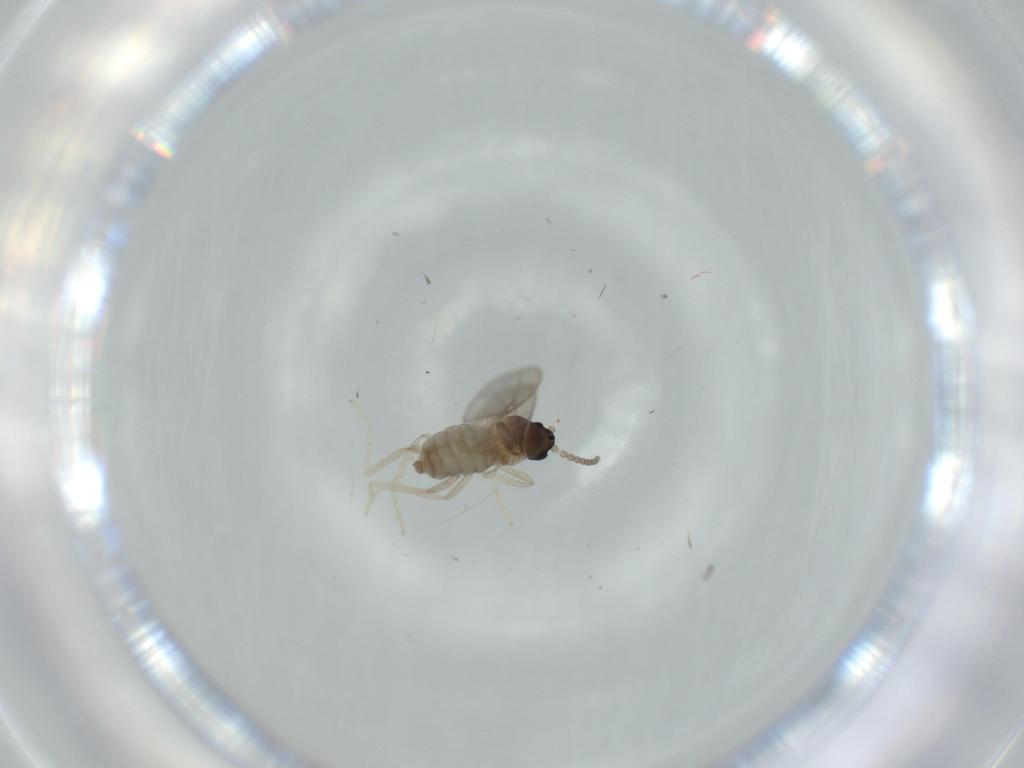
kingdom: Animalia
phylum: Arthropoda
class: Insecta
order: Diptera
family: Cecidomyiidae
